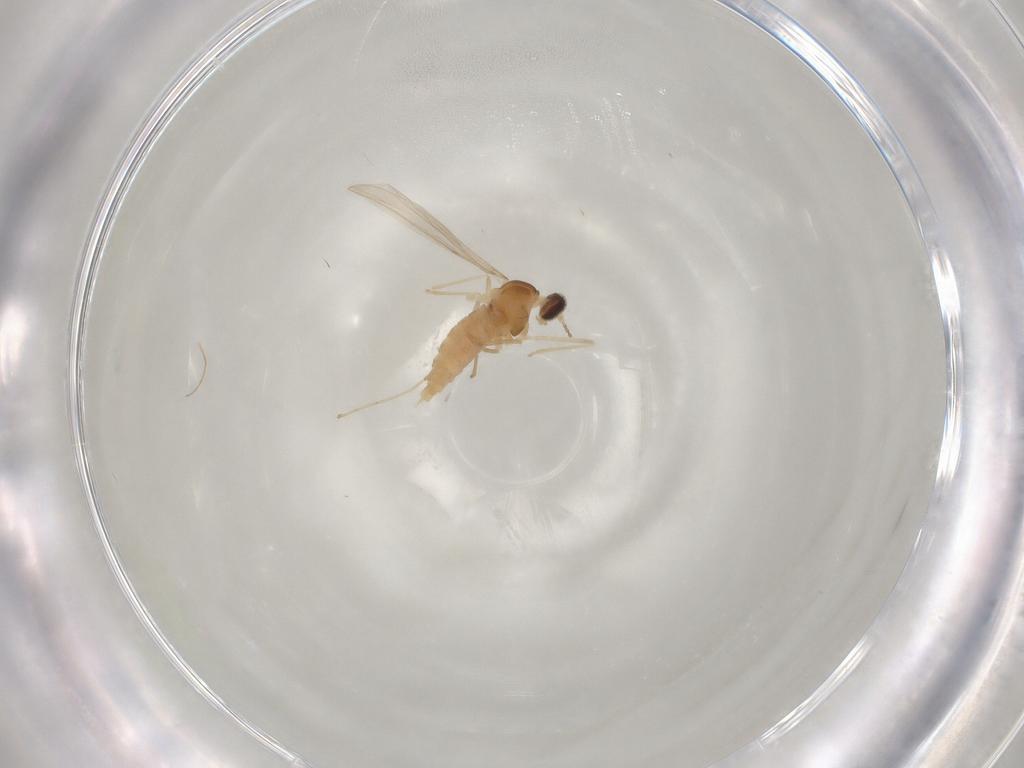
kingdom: Animalia
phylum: Arthropoda
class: Insecta
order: Diptera
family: Cecidomyiidae
